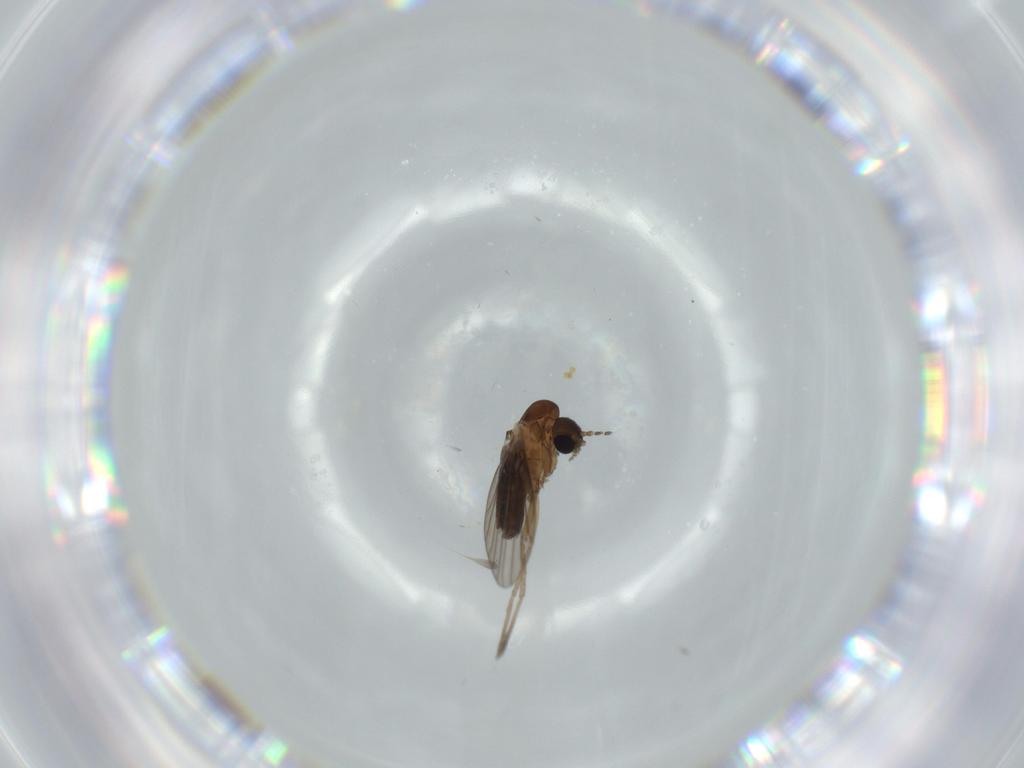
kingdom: Animalia
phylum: Arthropoda
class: Insecta
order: Diptera
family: Psychodidae
